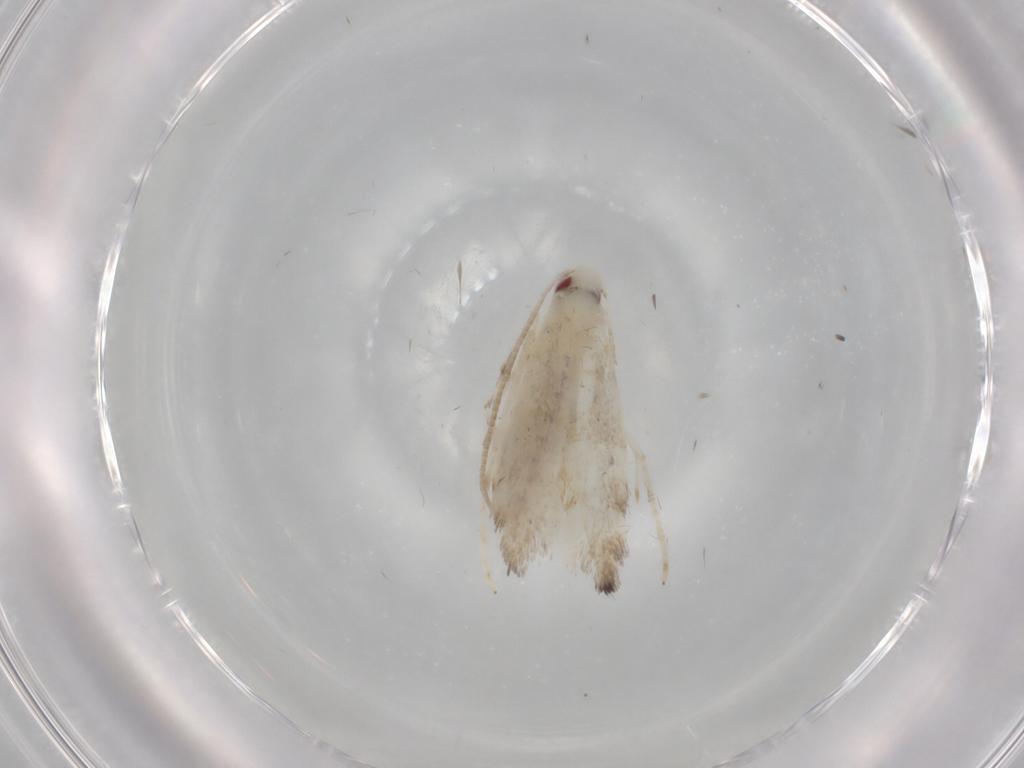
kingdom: Animalia
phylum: Arthropoda
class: Insecta
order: Lepidoptera
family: Gracillariidae
